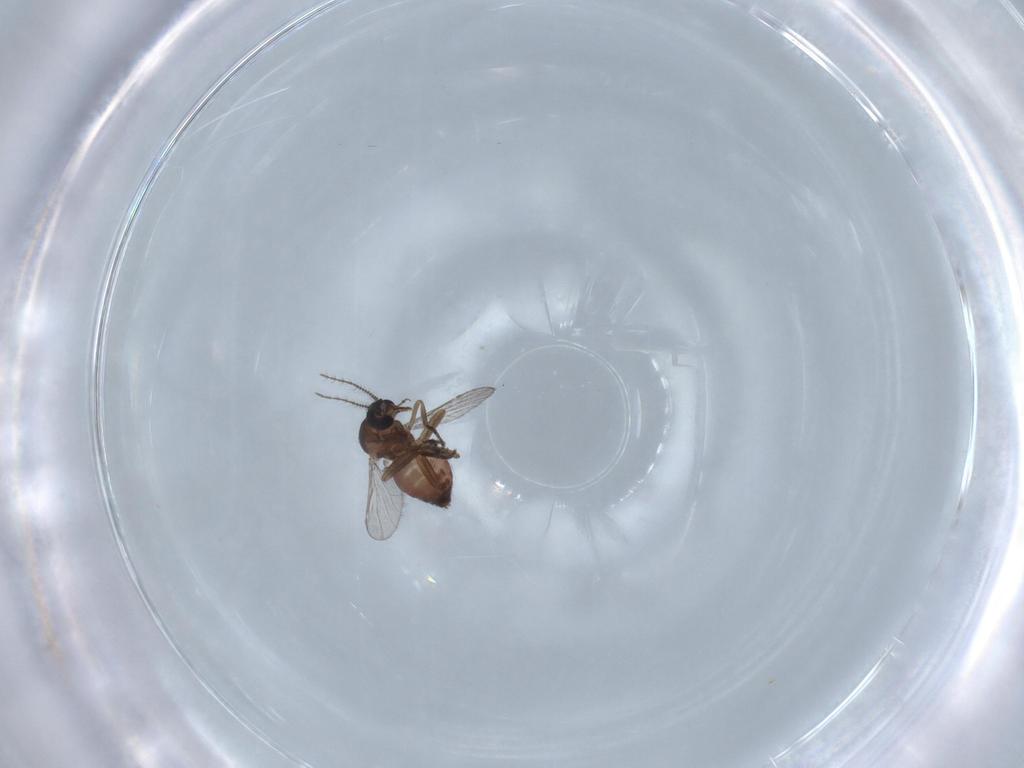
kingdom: Animalia
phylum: Arthropoda
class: Insecta
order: Diptera
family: Cecidomyiidae
